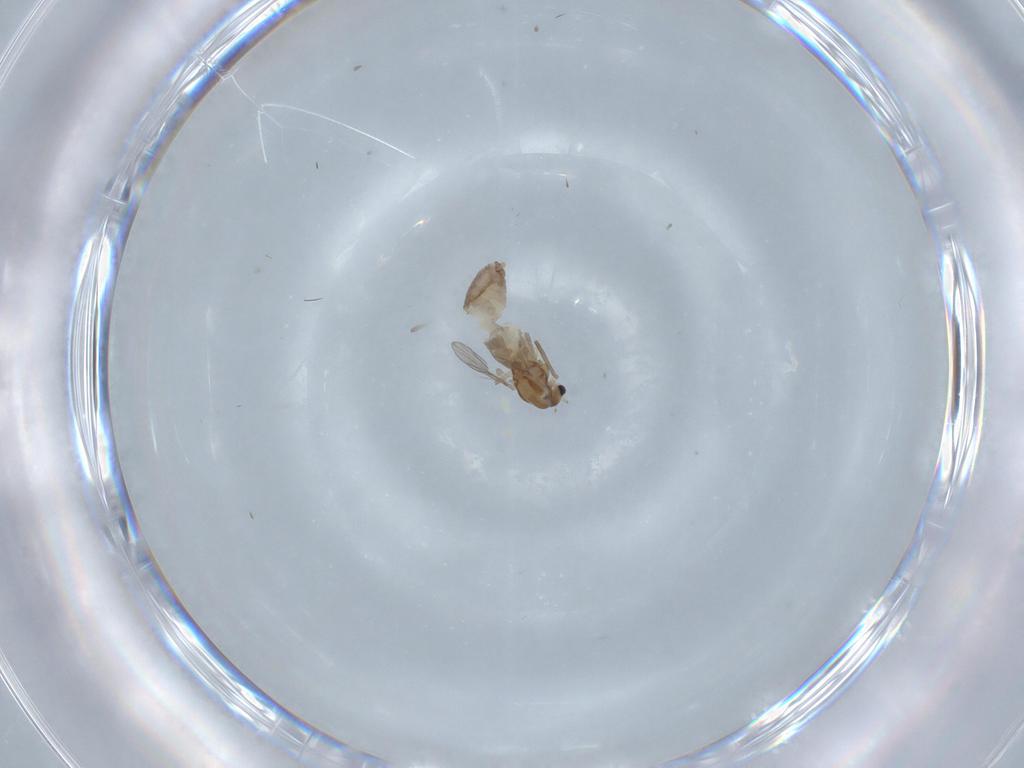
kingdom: Animalia
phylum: Arthropoda
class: Insecta
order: Diptera
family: Chironomidae
